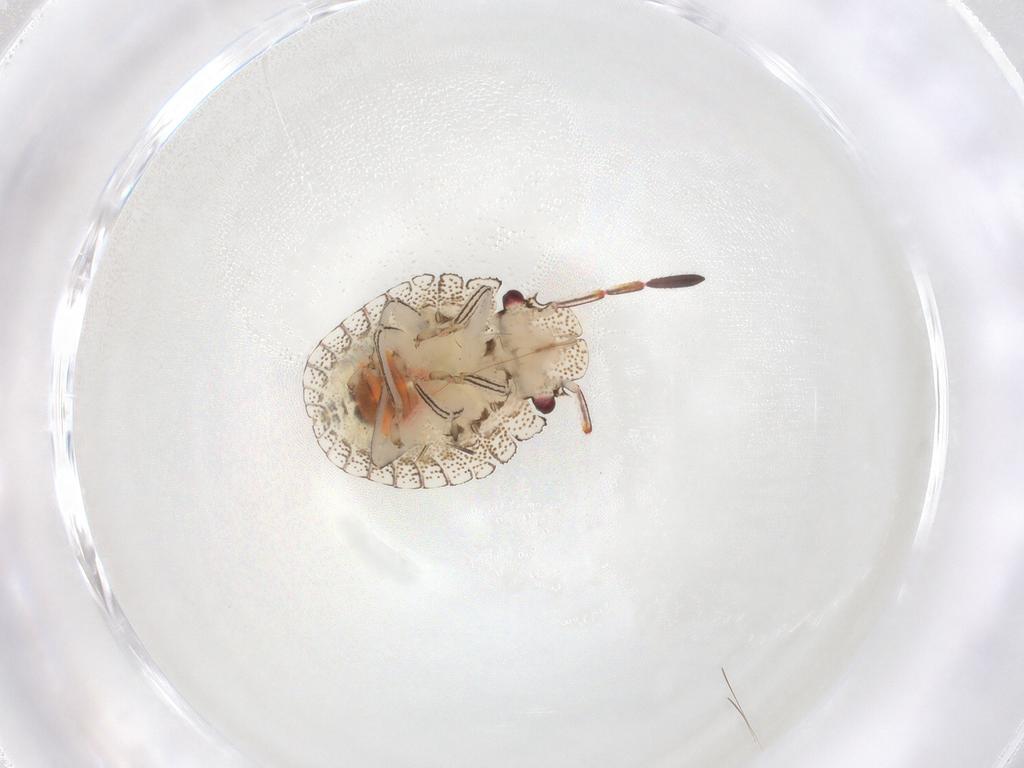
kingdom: Animalia
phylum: Arthropoda
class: Insecta
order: Hemiptera
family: Pentatomidae
